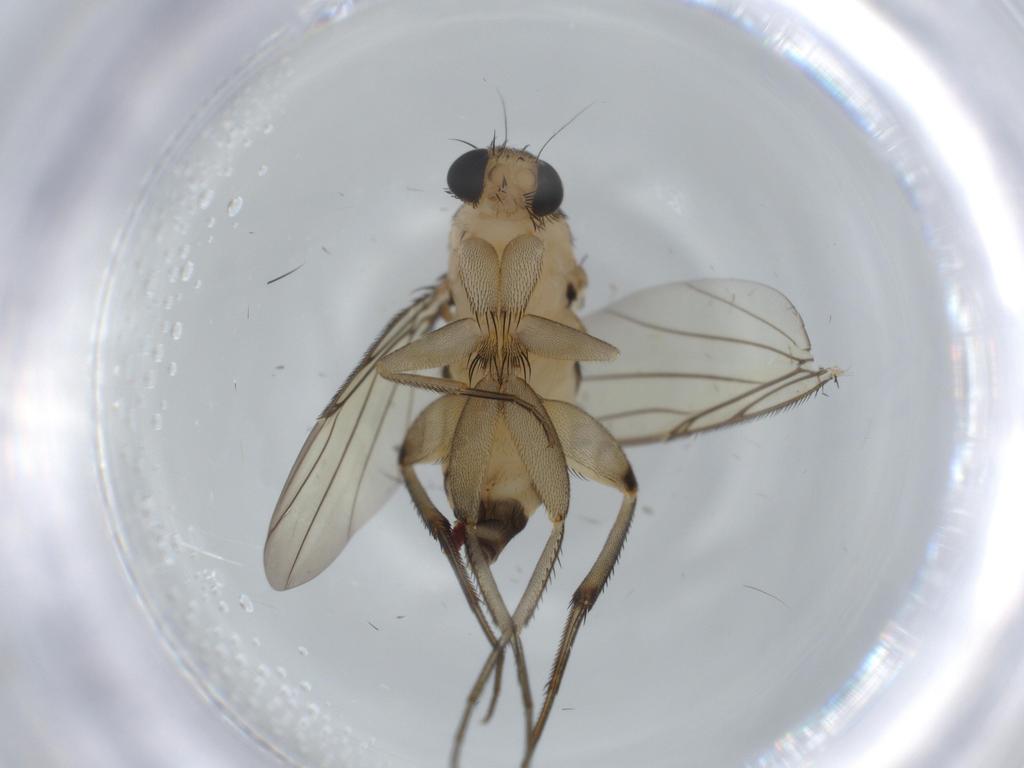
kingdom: Animalia
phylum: Arthropoda
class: Insecta
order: Diptera
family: Phoridae
